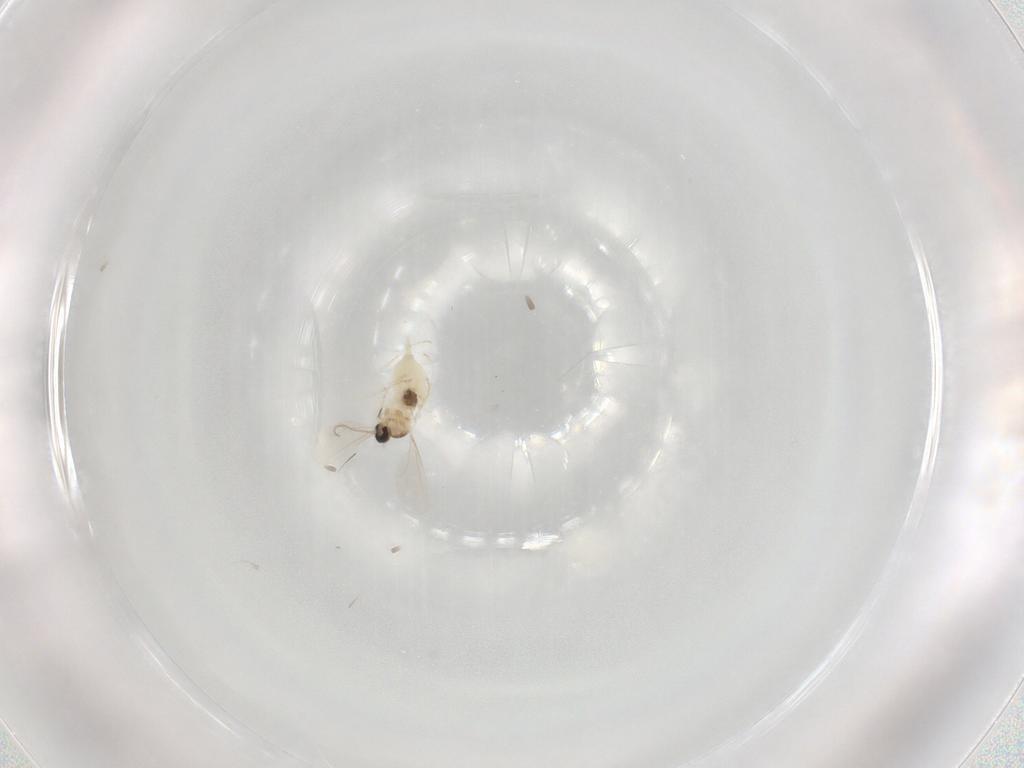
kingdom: Animalia
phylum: Arthropoda
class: Insecta
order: Diptera
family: Cecidomyiidae
